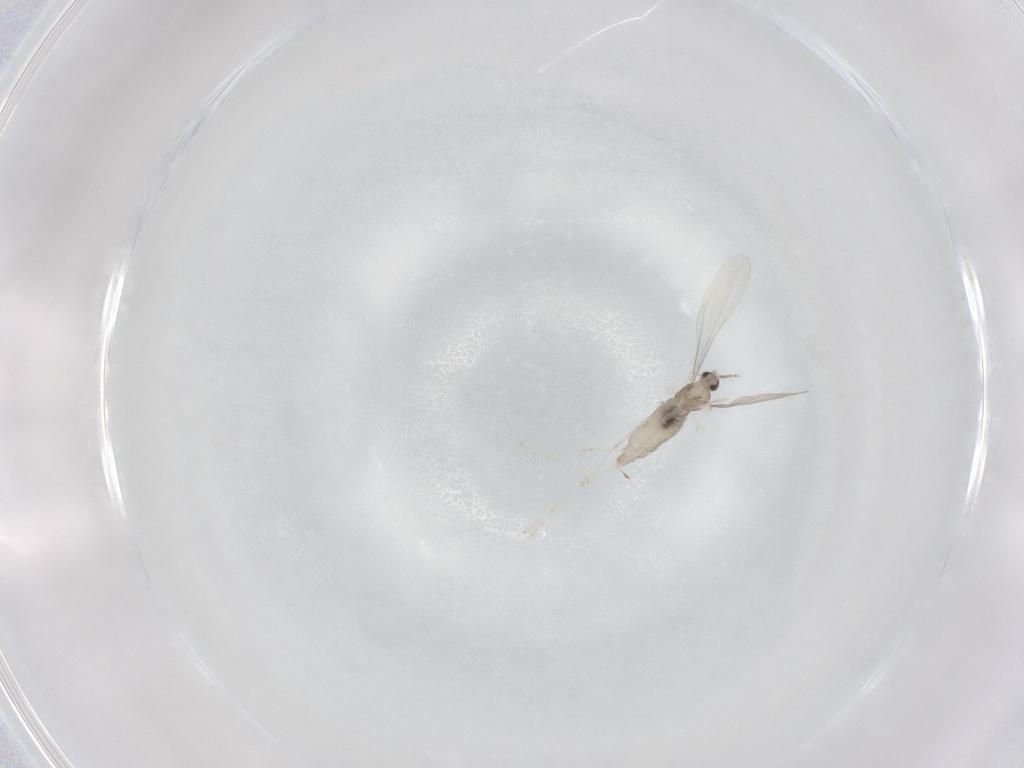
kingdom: Animalia
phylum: Arthropoda
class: Insecta
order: Diptera
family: Cecidomyiidae
